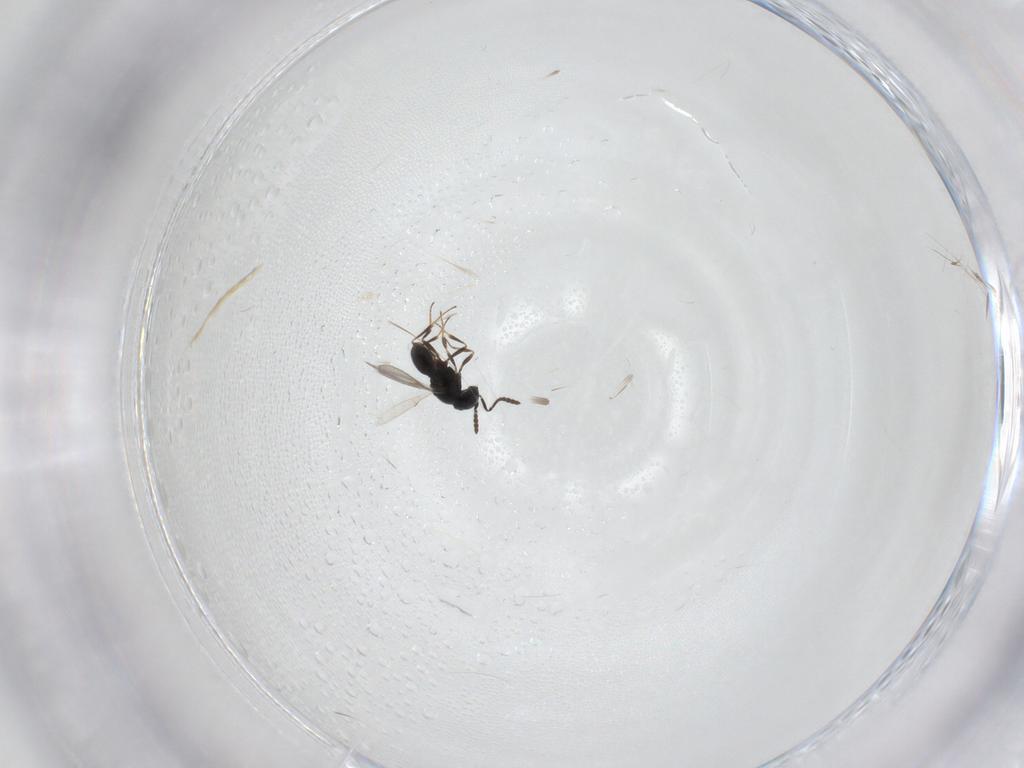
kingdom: Animalia
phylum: Arthropoda
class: Insecta
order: Hymenoptera
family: Scelionidae
